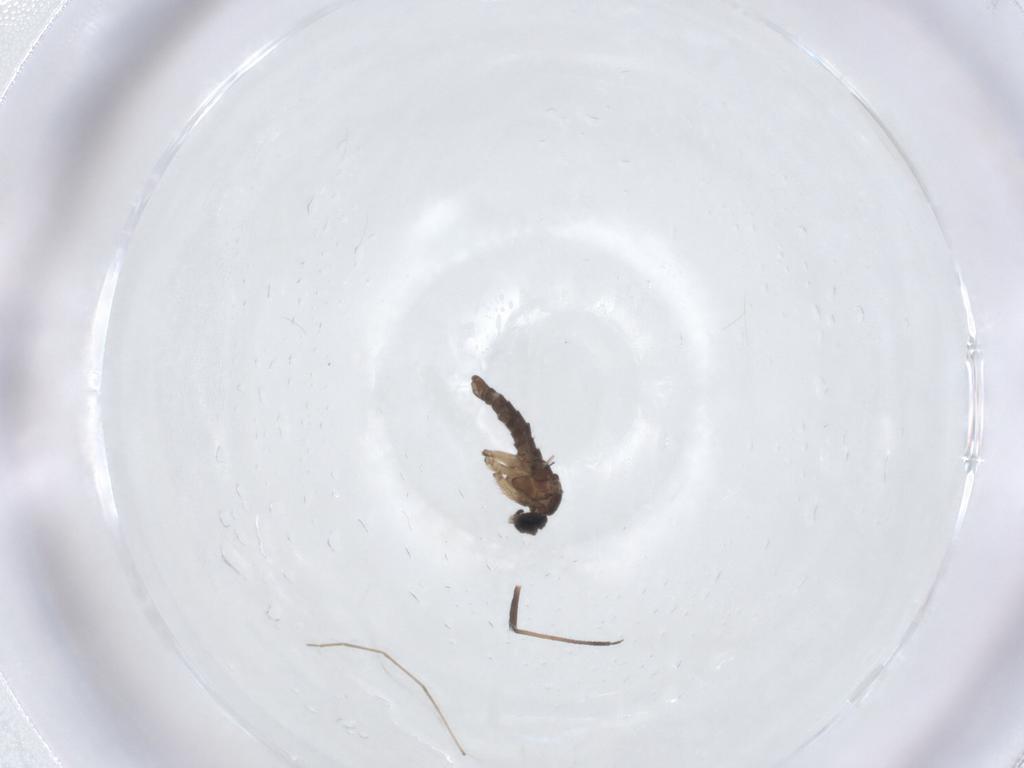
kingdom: Animalia
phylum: Arthropoda
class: Insecta
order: Diptera
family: Sciaridae
